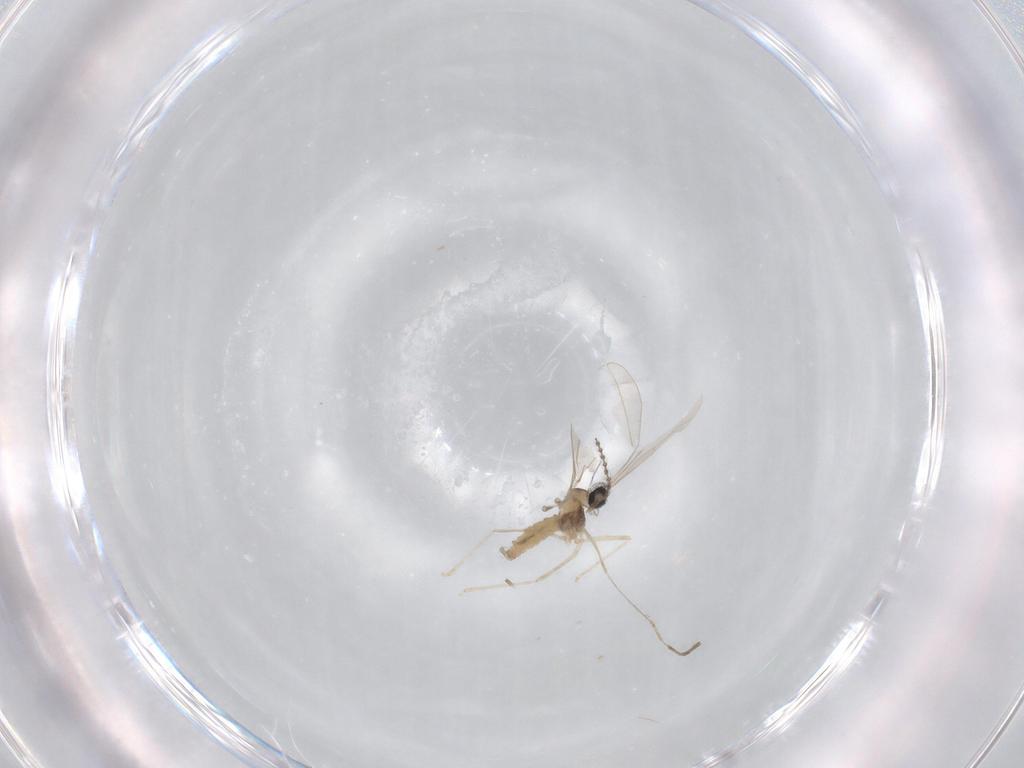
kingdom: Animalia
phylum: Arthropoda
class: Insecta
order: Diptera
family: Cecidomyiidae
